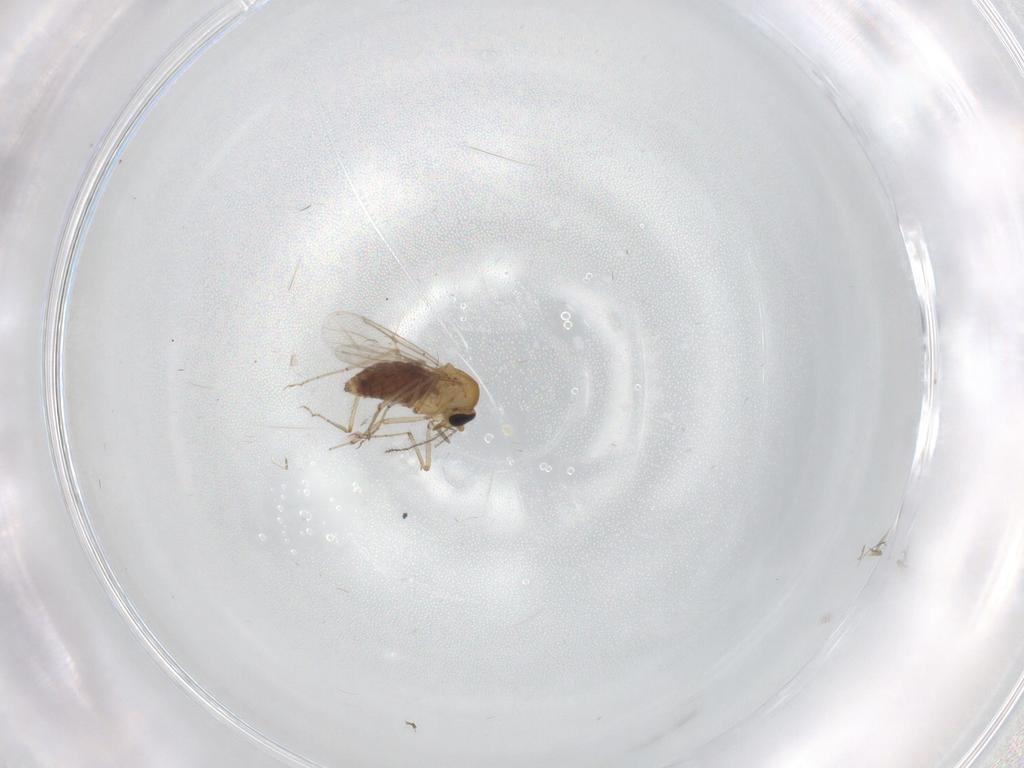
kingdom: Animalia
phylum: Arthropoda
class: Insecta
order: Diptera
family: Ceratopogonidae
